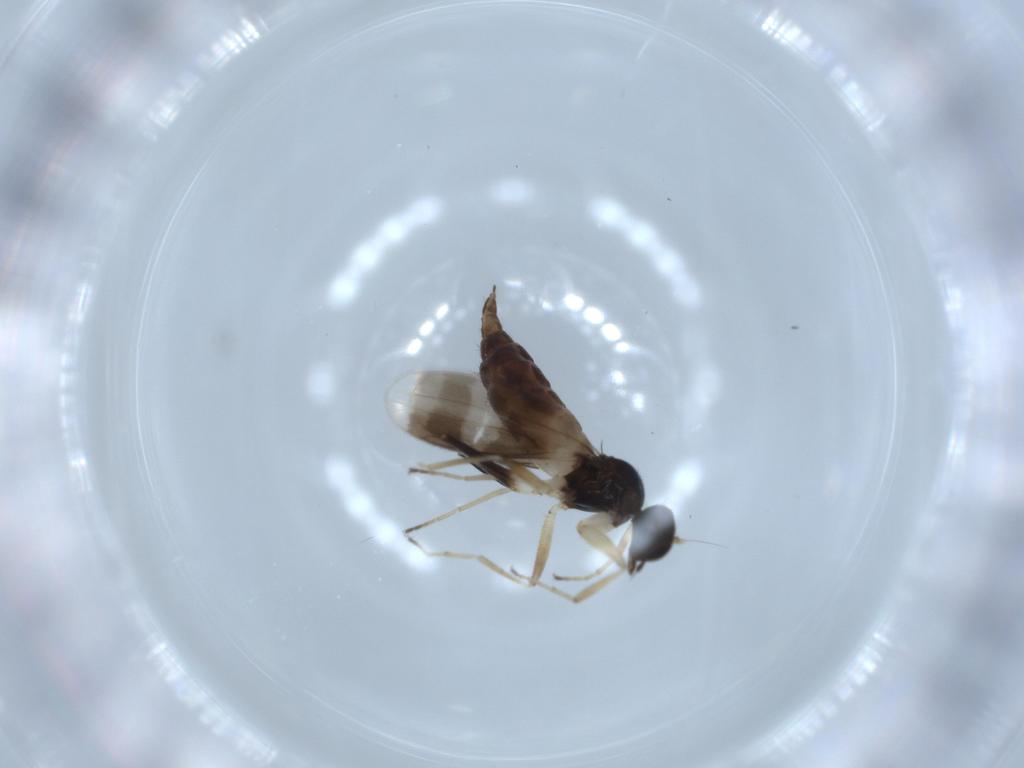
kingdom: Animalia
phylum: Arthropoda
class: Insecta
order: Diptera
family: Hybotidae
